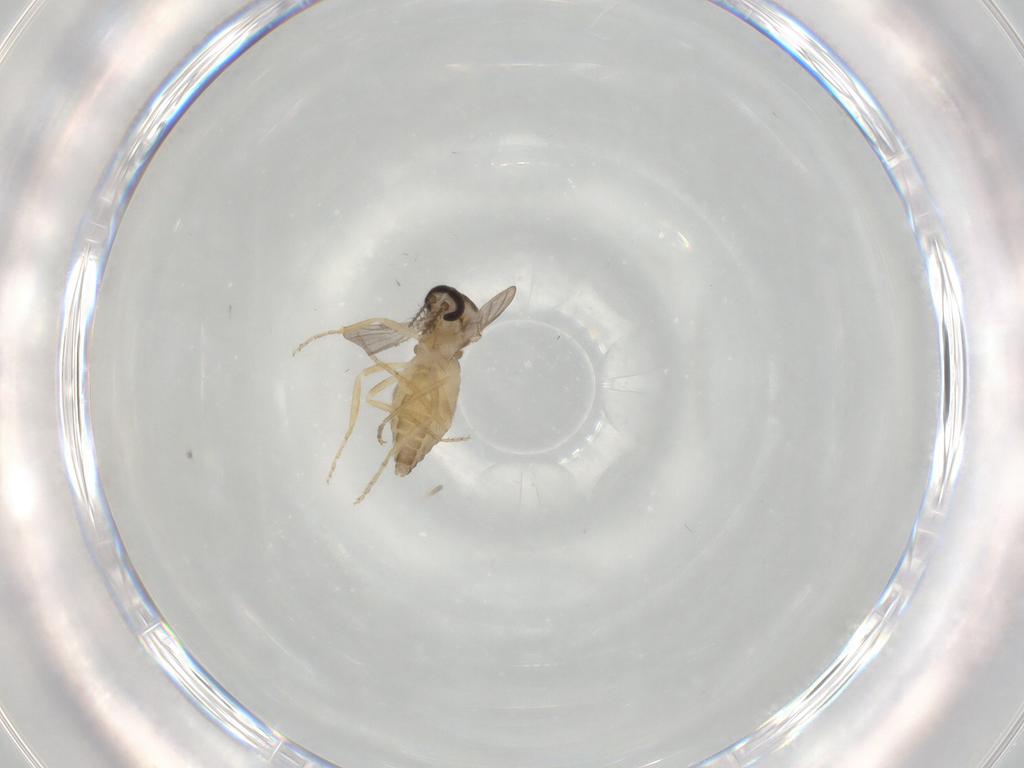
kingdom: Animalia
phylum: Arthropoda
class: Insecta
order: Diptera
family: Ceratopogonidae
